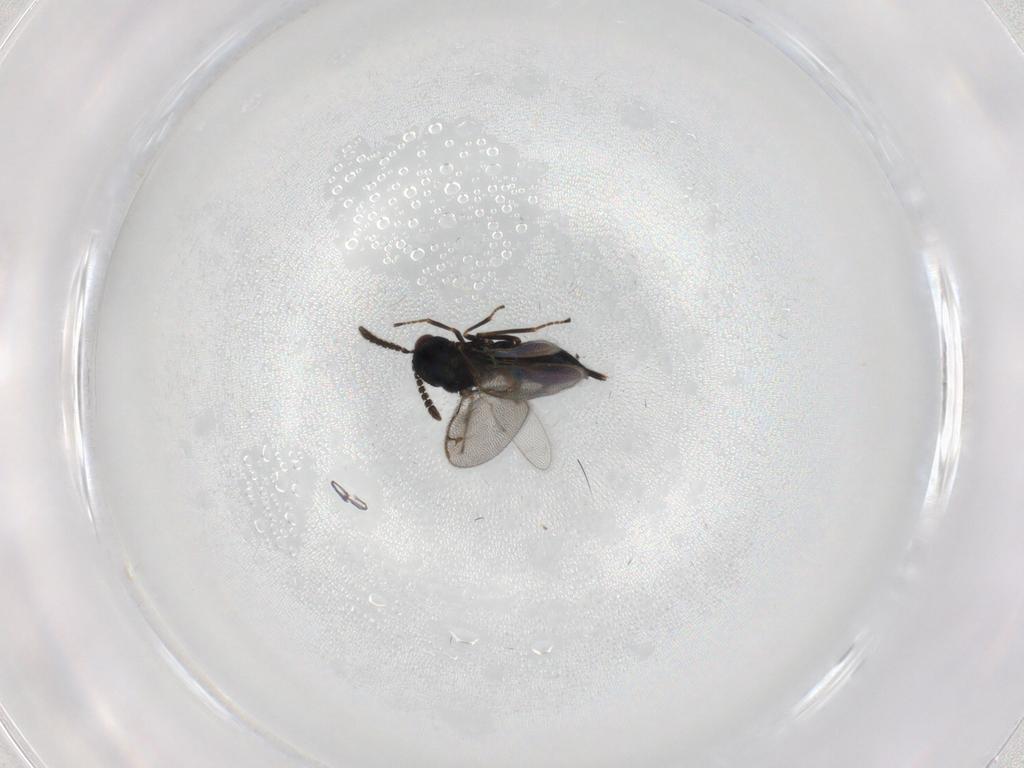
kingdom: Animalia
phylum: Arthropoda
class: Insecta
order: Hymenoptera
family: Pirenidae
